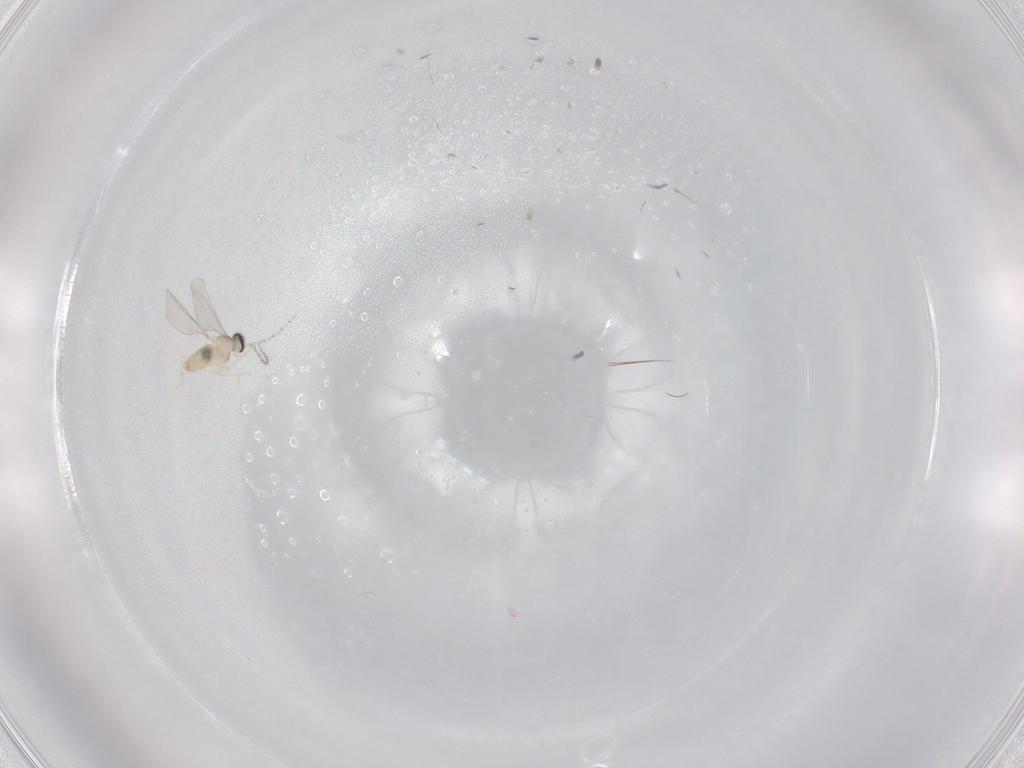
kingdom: Animalia
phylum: Arthropoda
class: Insecta
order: Diptera
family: Cecidomyiidae
